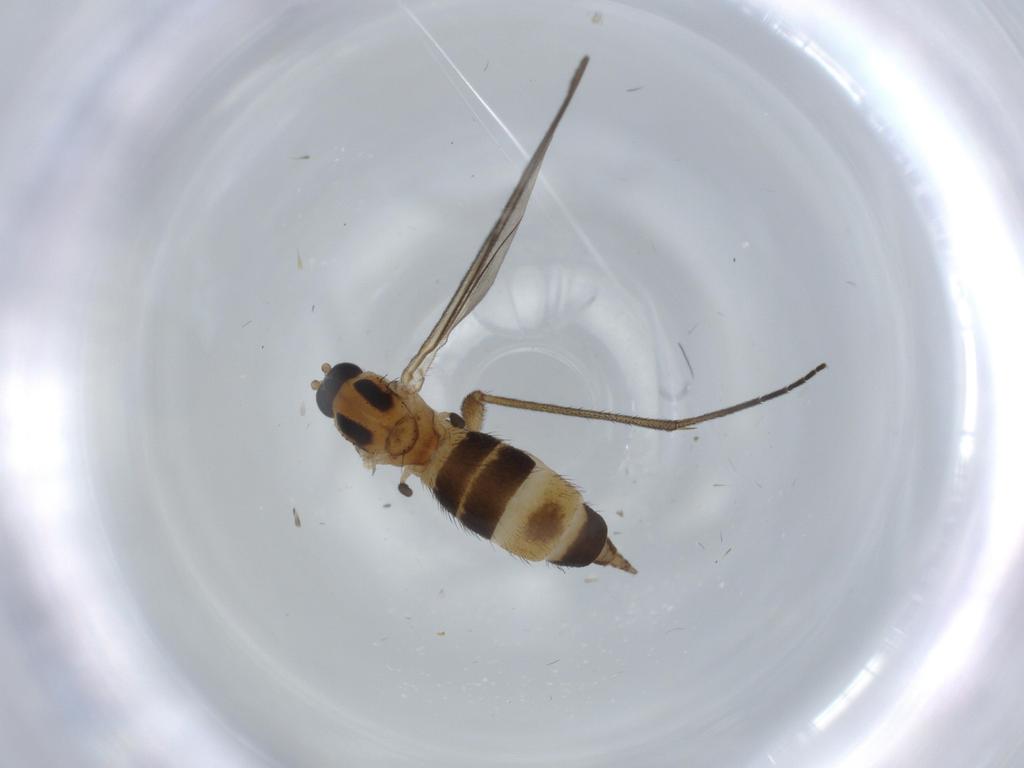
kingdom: Animalia
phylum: Arthropoda
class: Insecta
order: Diptera
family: Sciaridae
